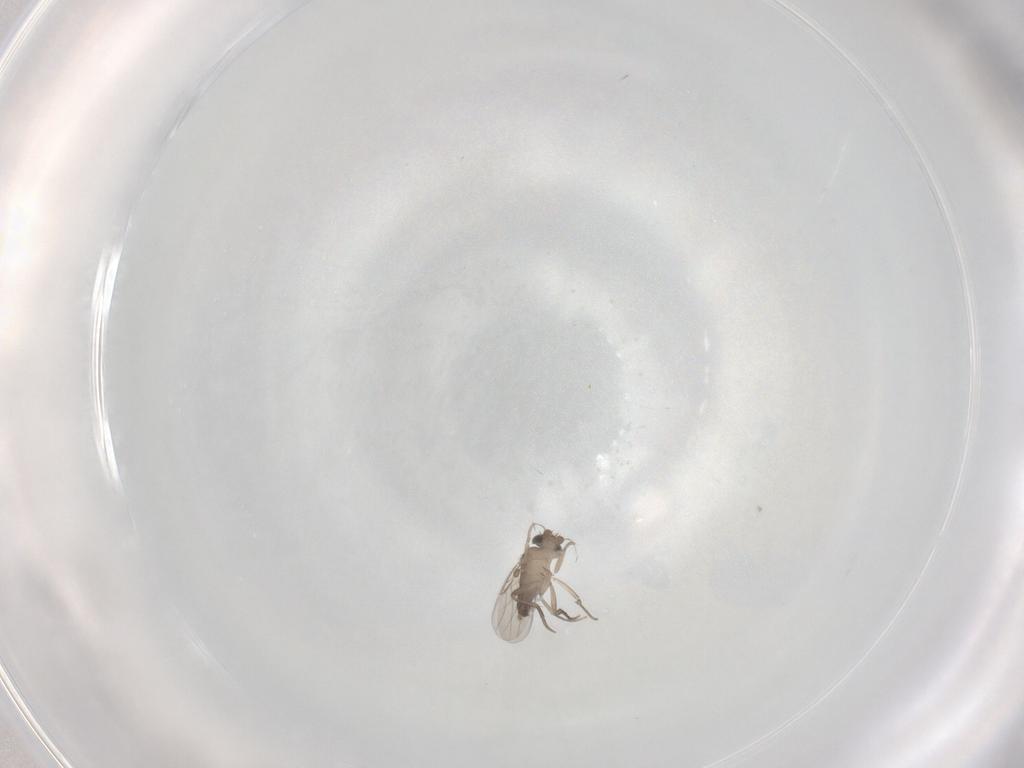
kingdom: Animalia
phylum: Arthropoda
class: Insecta
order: Diptera
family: Phoridae
